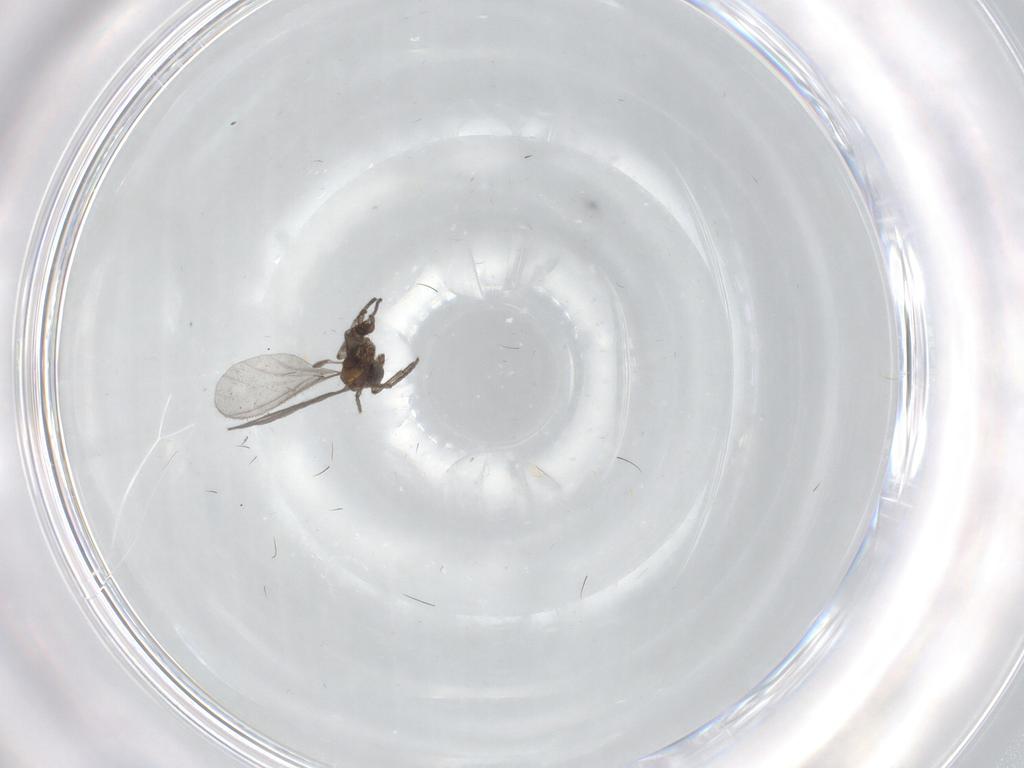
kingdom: Animalia
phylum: Arthropoda
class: Insecta
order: Diptera
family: Sciaridae
